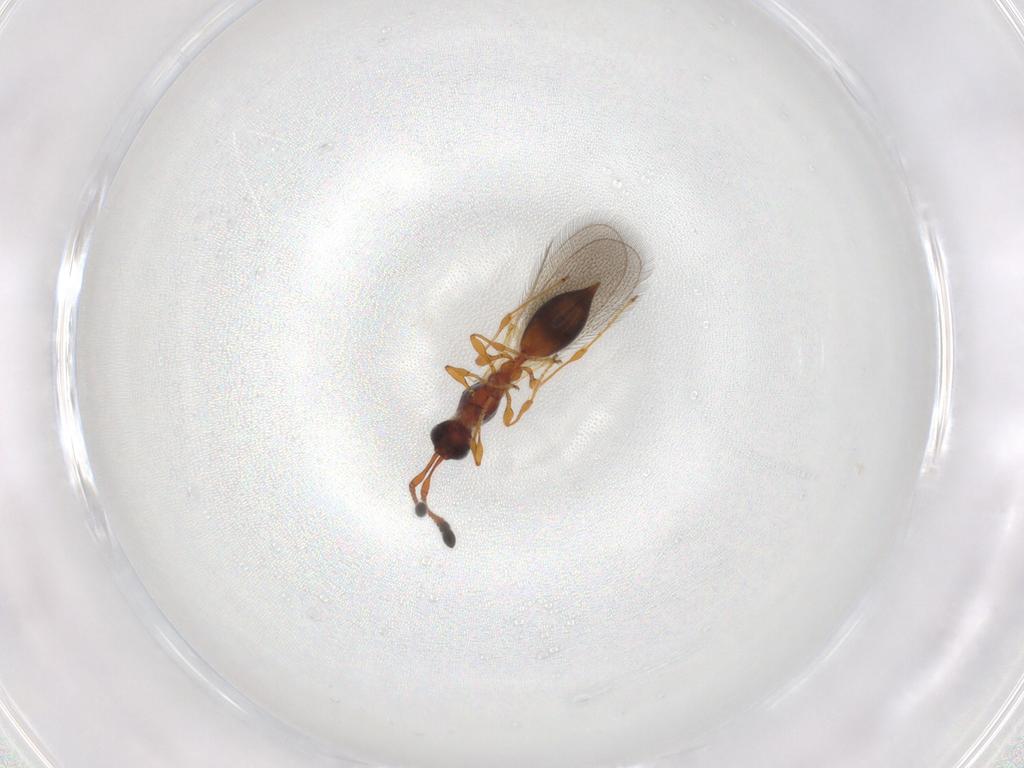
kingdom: Animalia
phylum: Arthropoda
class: Insecta
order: Hymenoptera
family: Diapriidae
